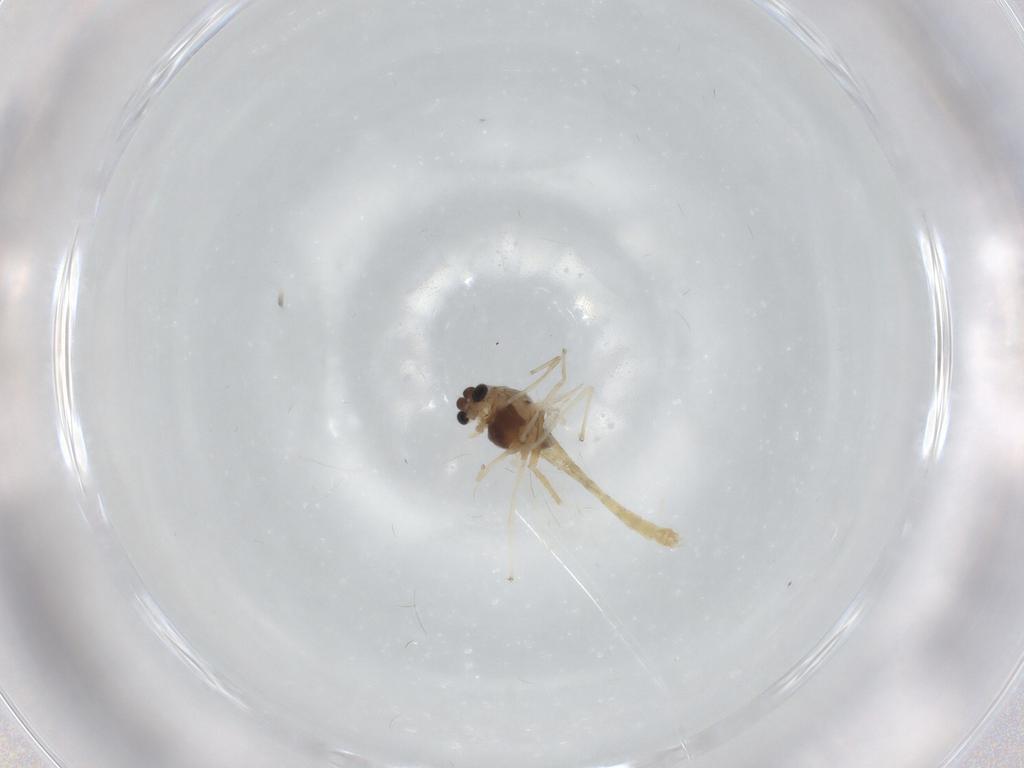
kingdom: Animalia
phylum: Arthropoda
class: Insecta
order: Diptera
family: Chironomidae
